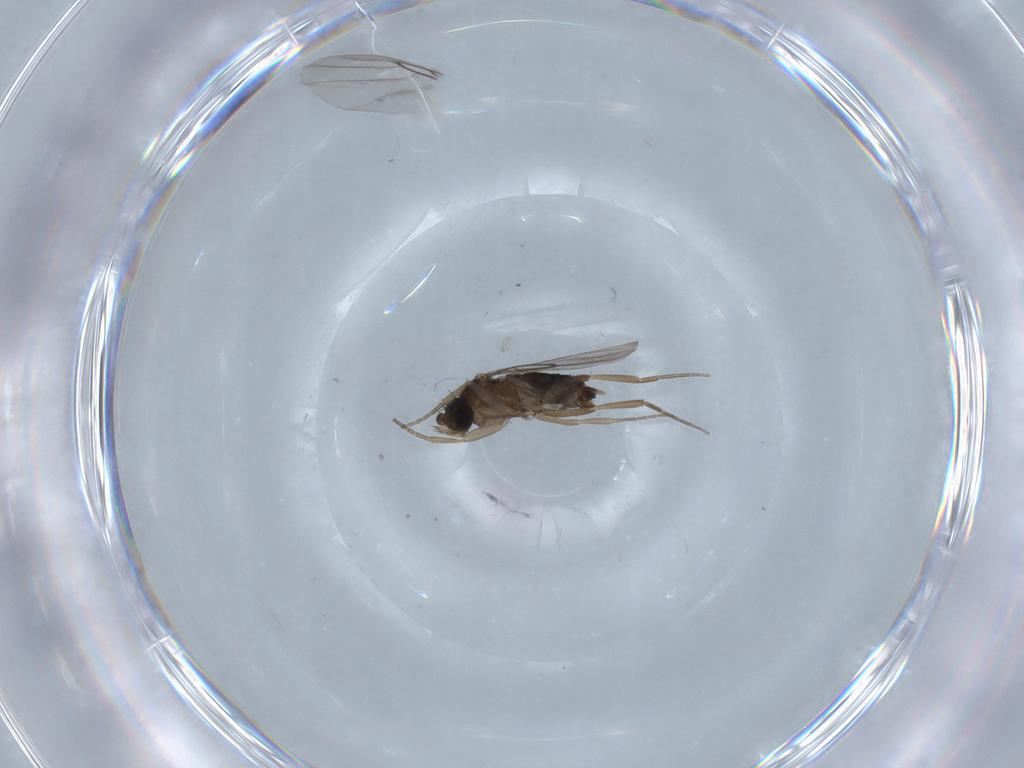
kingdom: Animalia
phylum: Arthropoda
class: Insecta
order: Diptera
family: Phoridae
